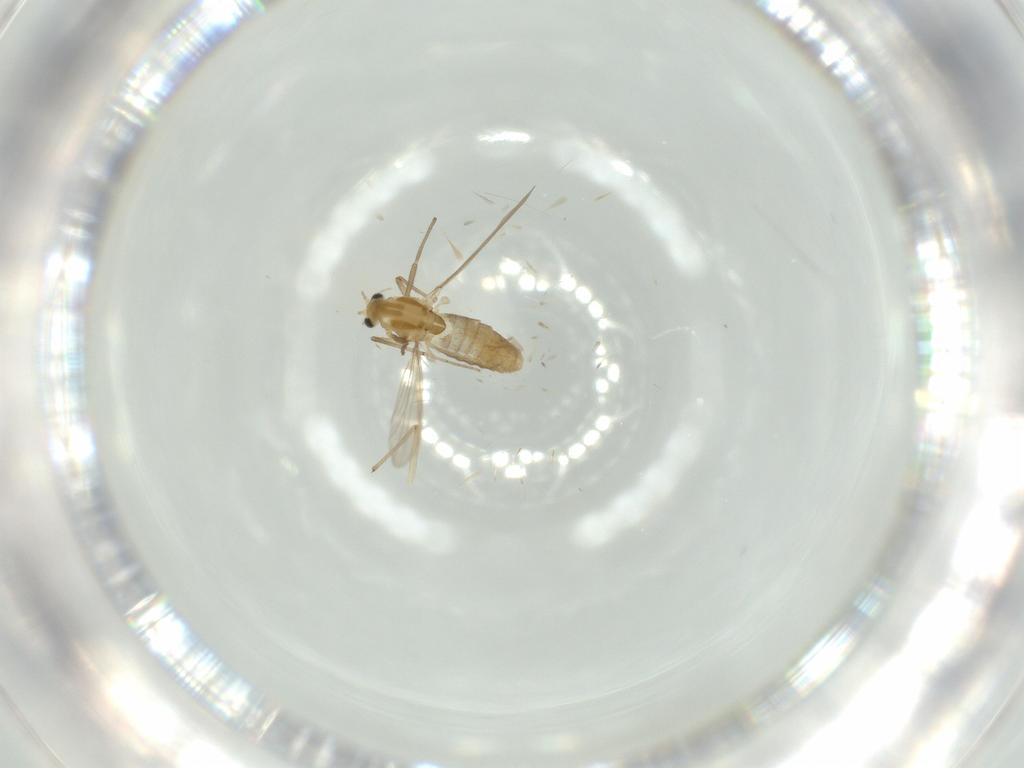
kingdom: Animalia
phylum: Arthropoda
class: Insecta
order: Diptera
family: Chironomidae
